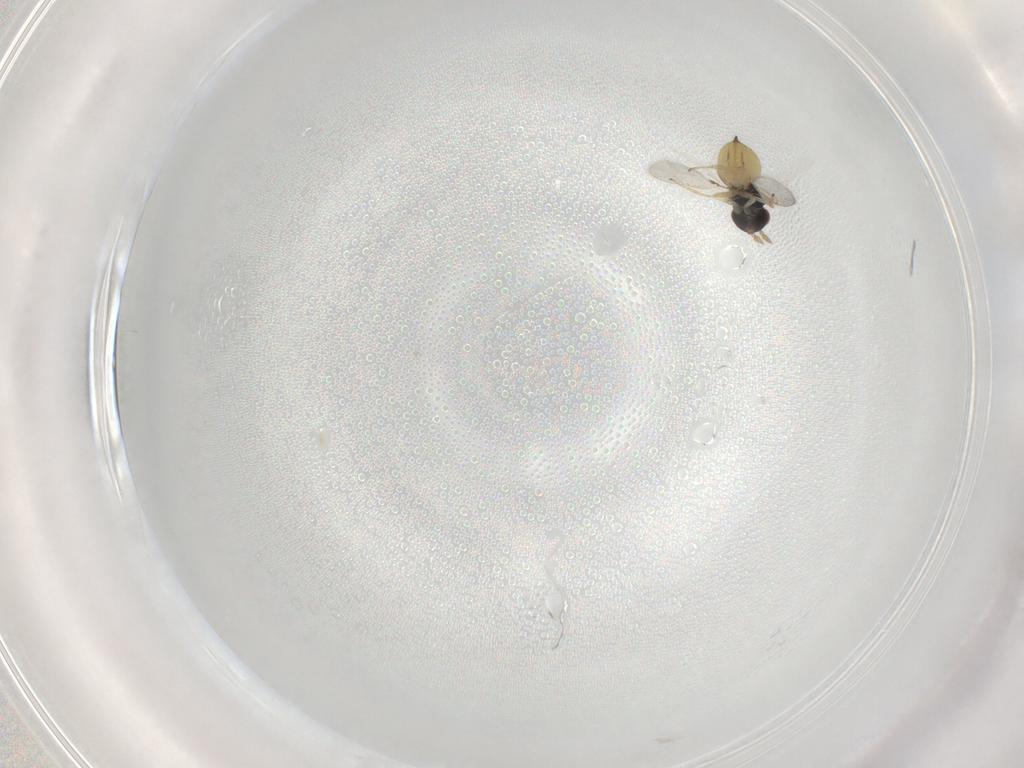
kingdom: Animalia
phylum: Arthropoda
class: Insecta
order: Hymenoptera
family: Eulophidae
